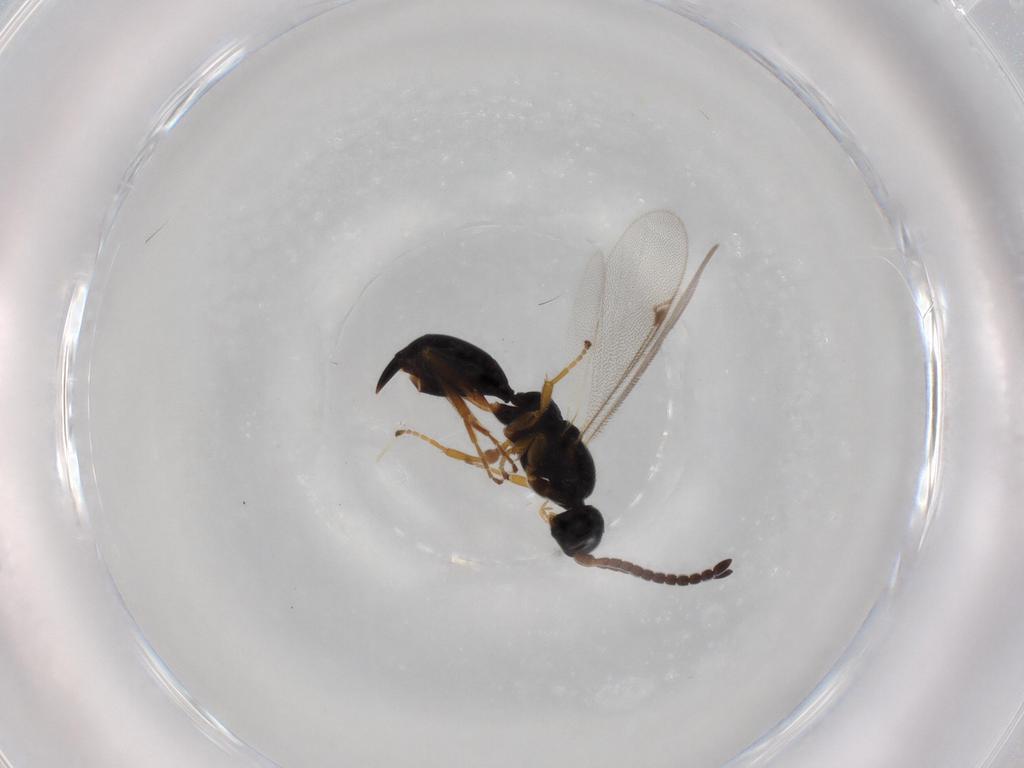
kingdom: Animalia
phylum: Arthropoda
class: Insecta
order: Hymenoptera
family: Proctotrupidae
